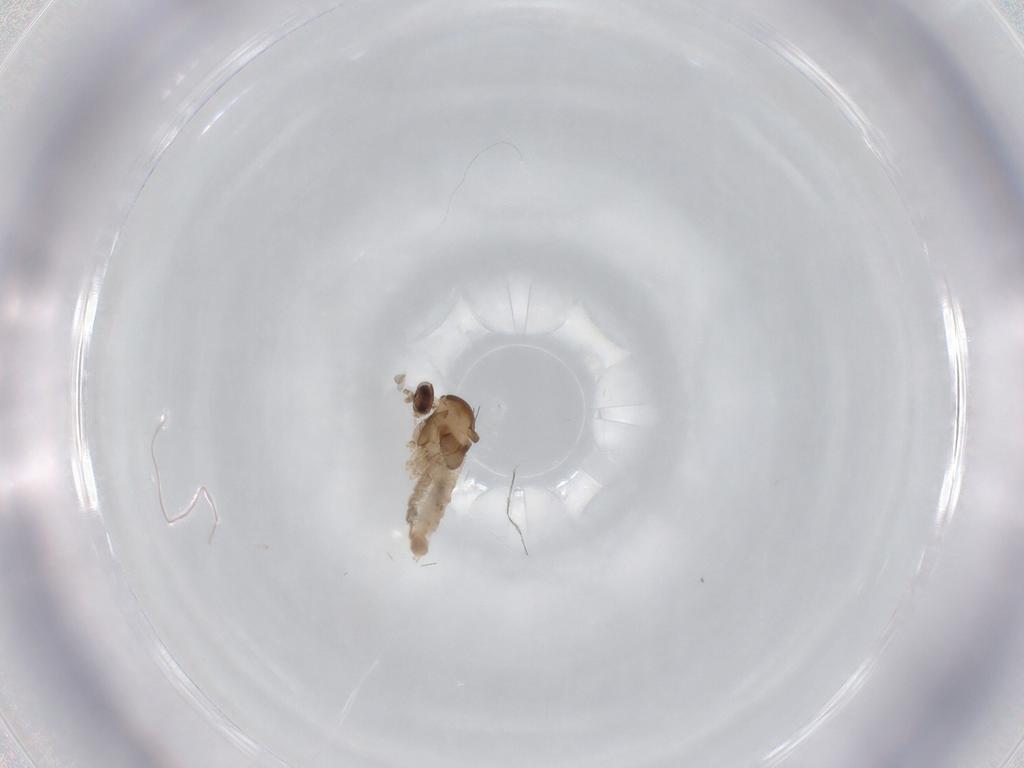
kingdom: Animalia
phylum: Arthropoda
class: Insecta
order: Diptera
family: Cecidomyiidae
